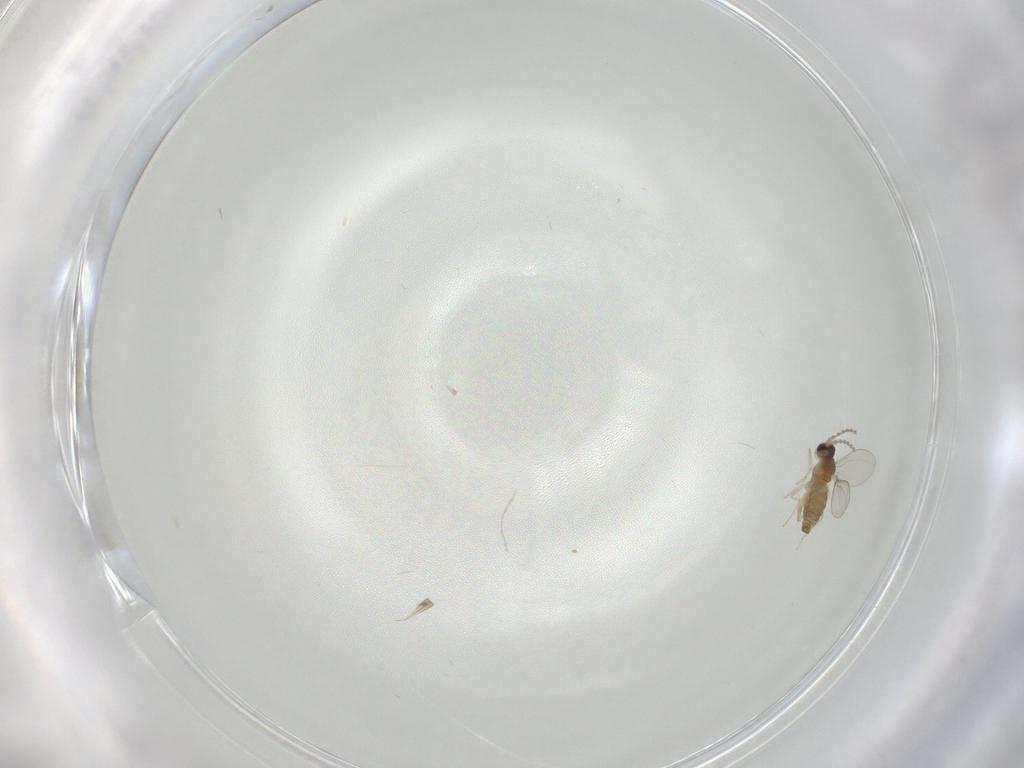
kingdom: Animalia
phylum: Arthropoda
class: Insecta
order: Diptera
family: Cecidomyiidae
